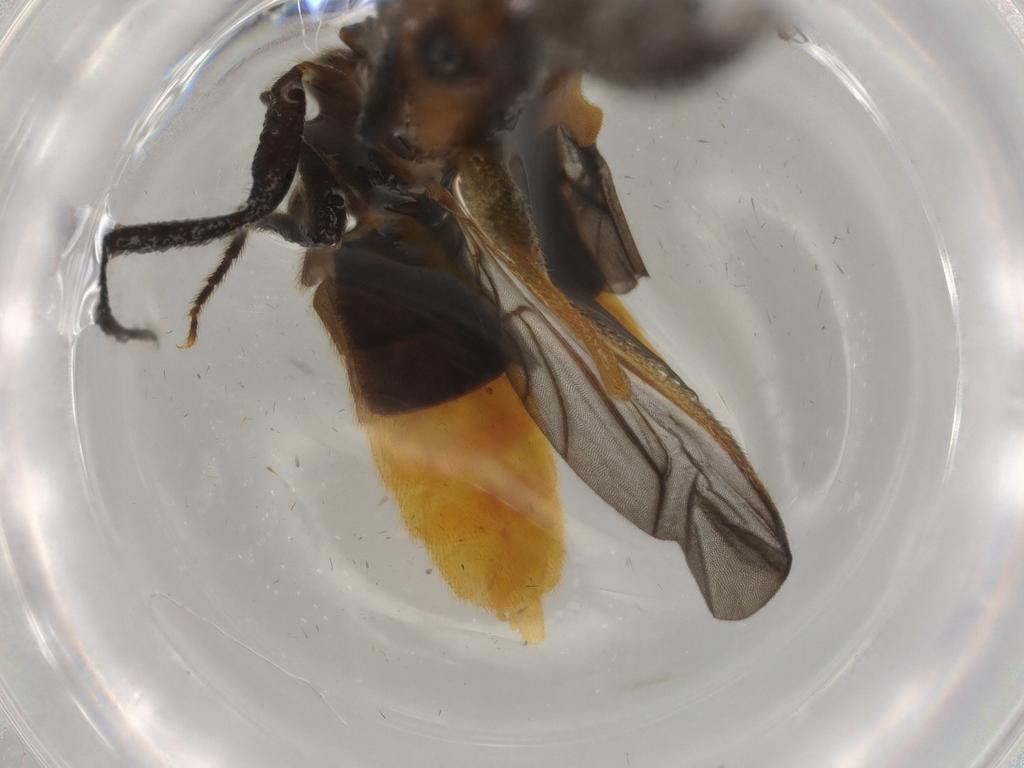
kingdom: Animalia
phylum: Arthropoda
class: Insecta
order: Coleoptera
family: Phengodidae
